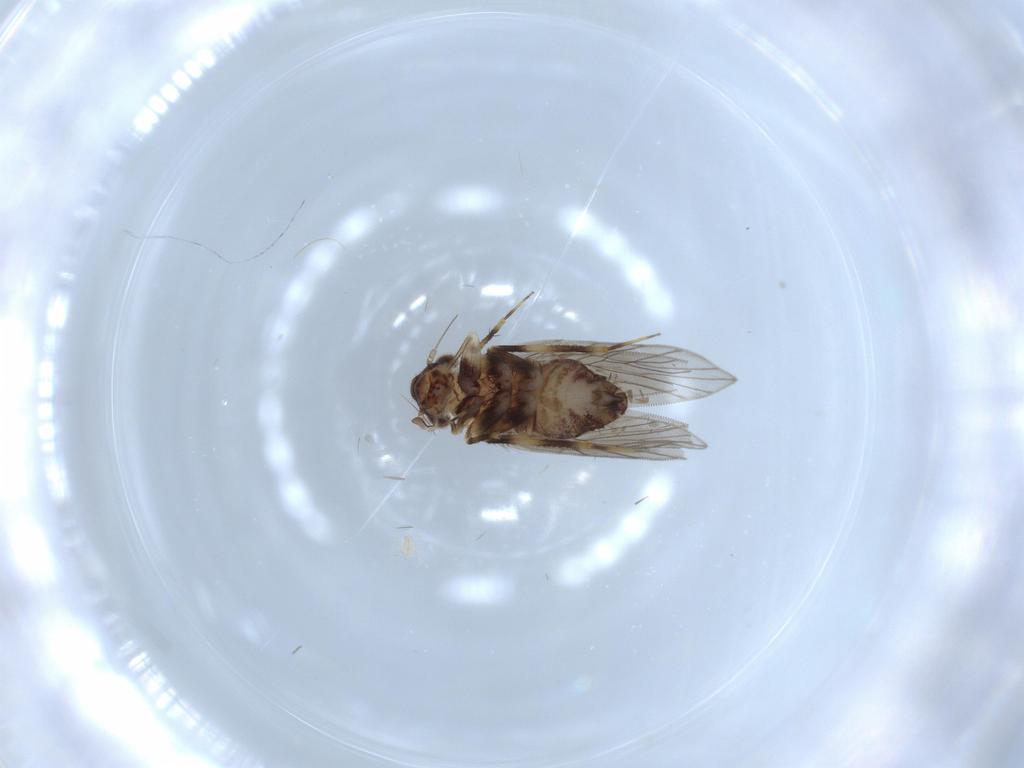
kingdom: Animalia
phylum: Arthropoda
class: Insecta
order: Psocodea
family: Lepidopsocidae
